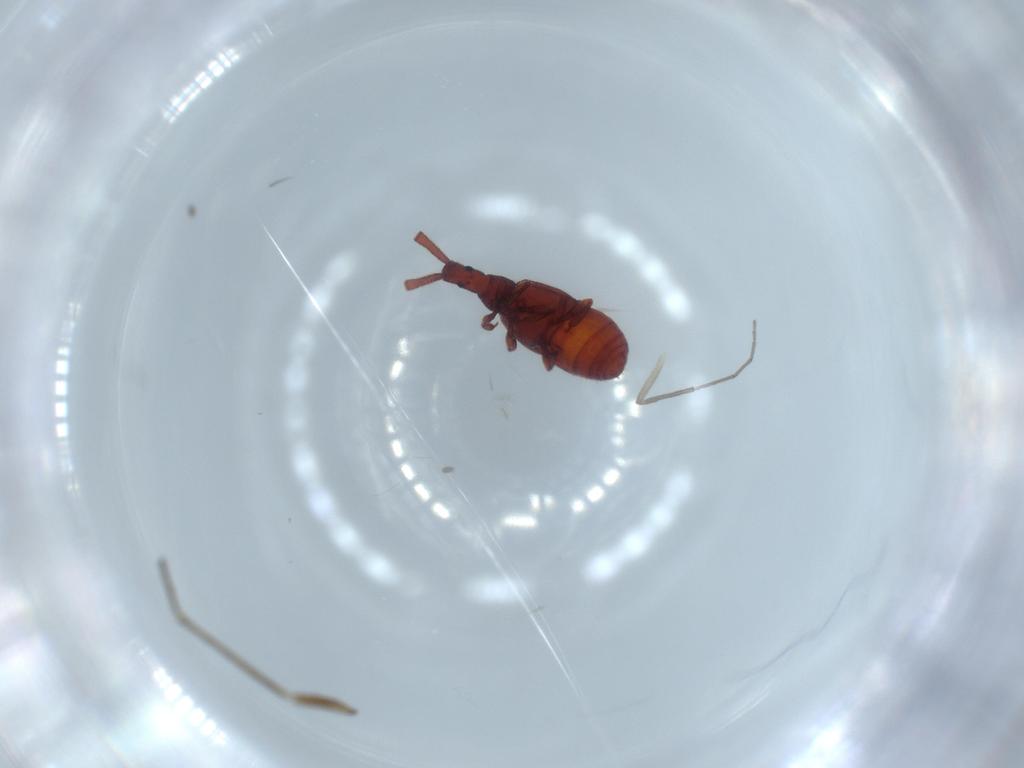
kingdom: Animalia
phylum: Arthropoda
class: Insecta
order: Coleoptera
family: Staphylinidae
